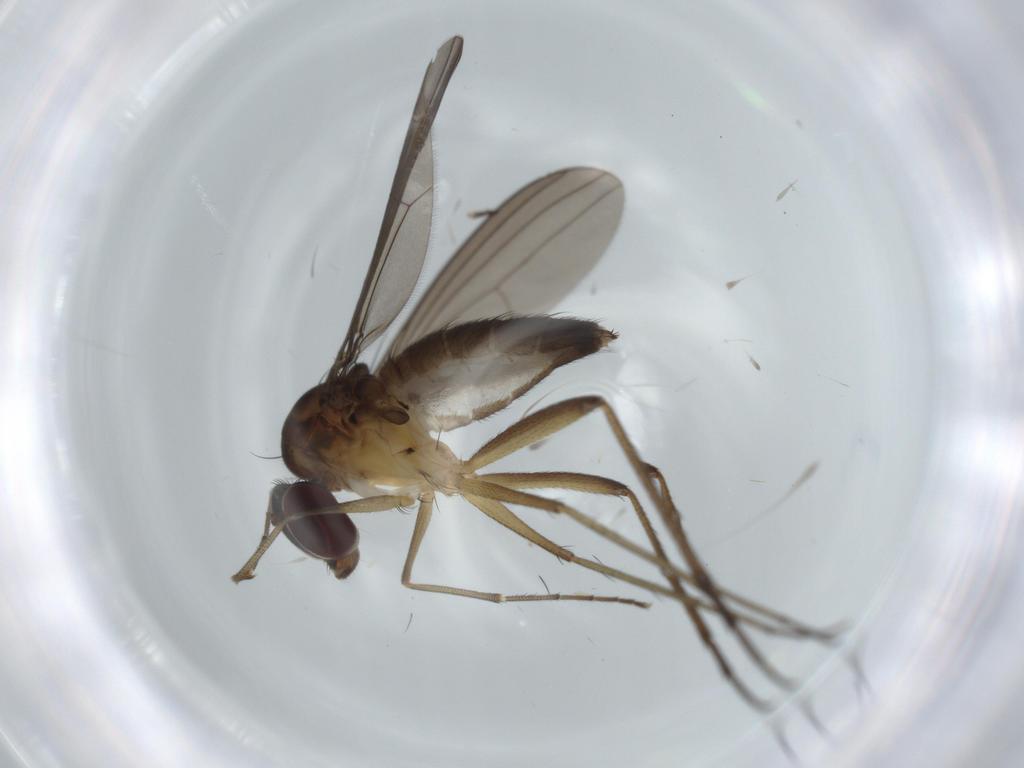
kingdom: Animalia
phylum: Arthropoda
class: Insecta
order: Diptera
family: Dolichopodidae
